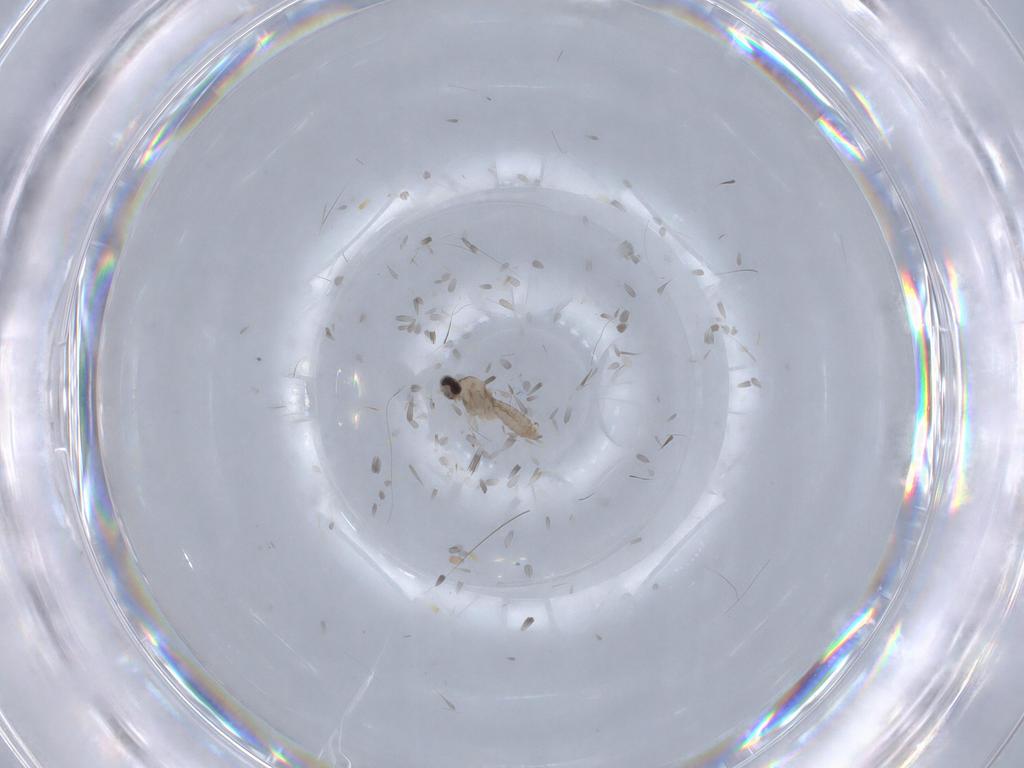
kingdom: Animalia
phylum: Arthropoda
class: Insecta
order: Diptera
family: Cecidomyiidae
